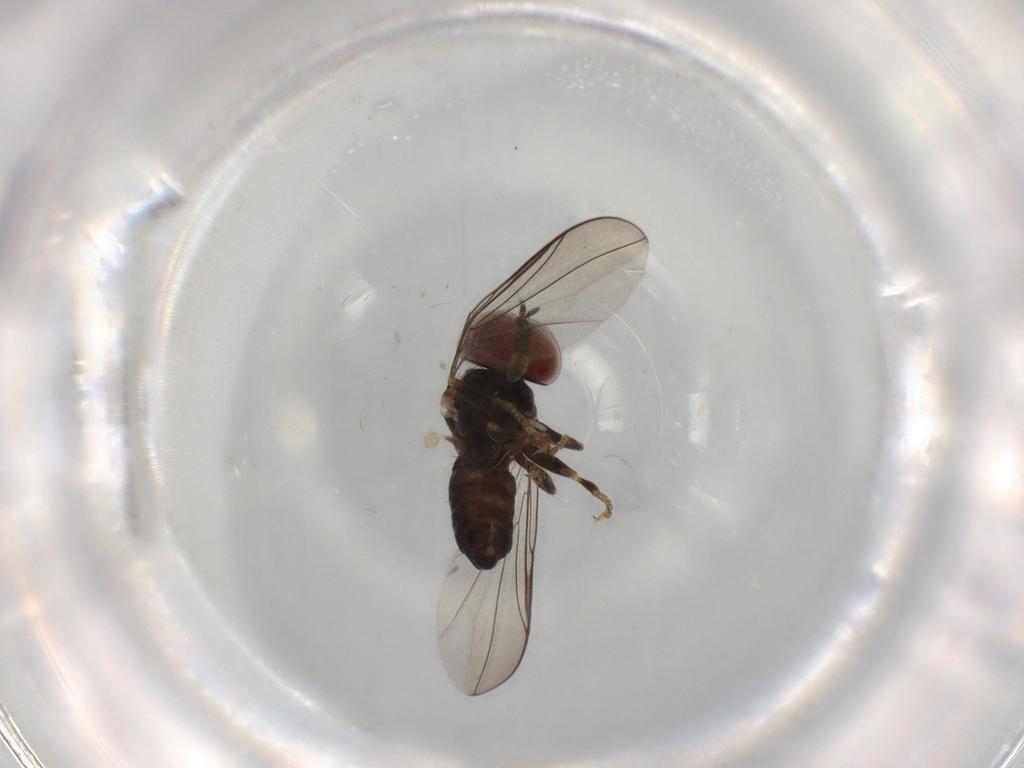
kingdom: Animalia
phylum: Arthropoda
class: Insecta
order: Diptera
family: Pipunculidae
